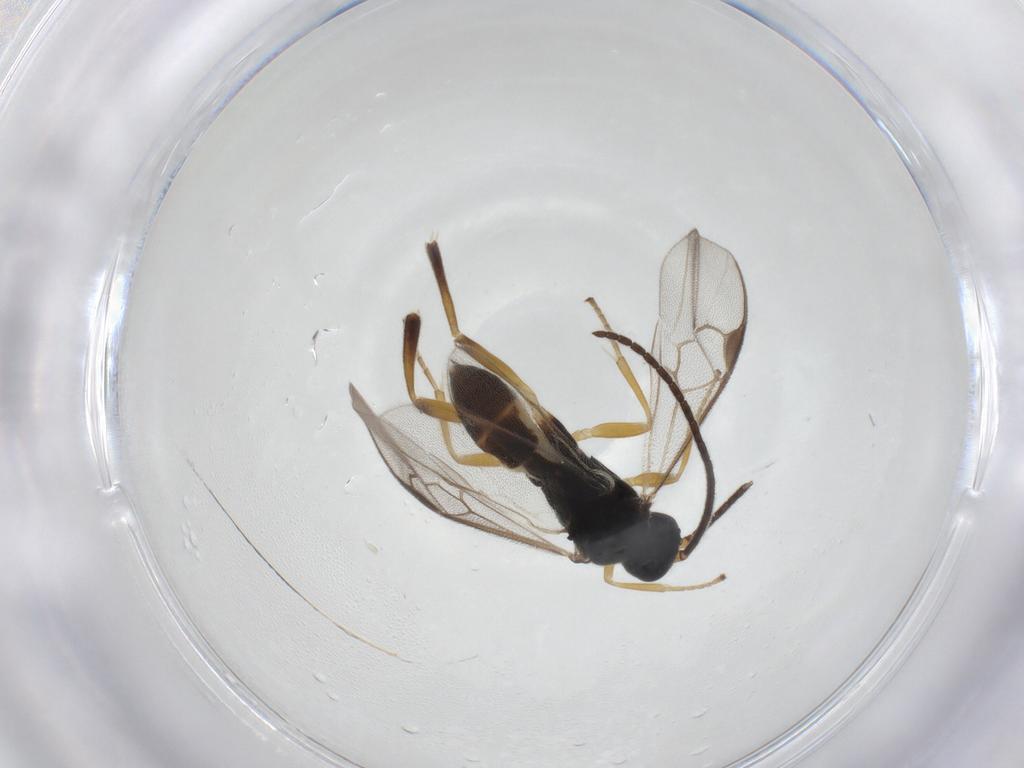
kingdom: Animalia
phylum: Arthropoda
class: Insecta
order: Hymenoptera
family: Braconidae
